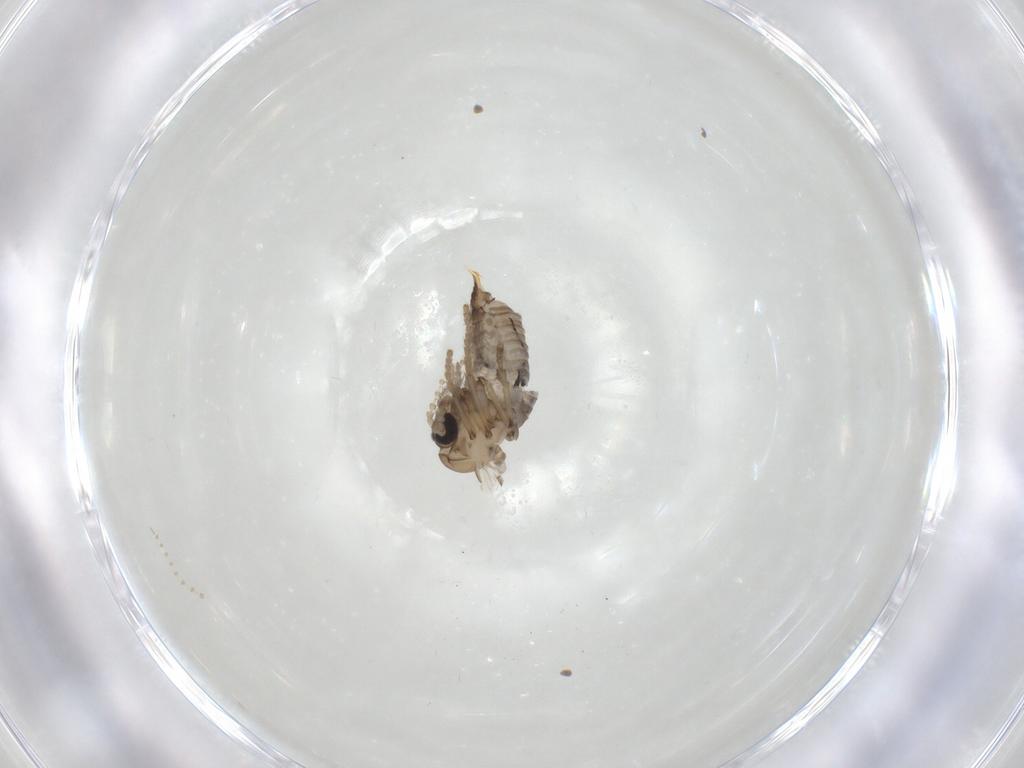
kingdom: Animalia
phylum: Arthropoda
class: Insecta
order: Diptera
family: Psychodidae
